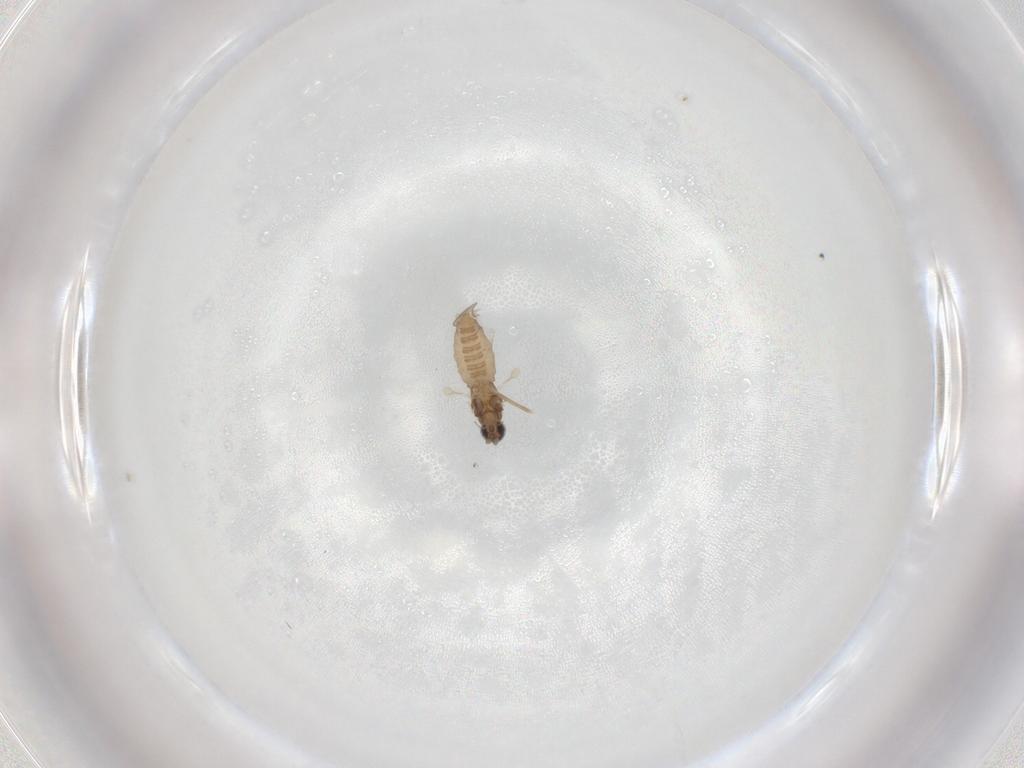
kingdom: Animalia
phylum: Arthropoda
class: Insecta
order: Diptera
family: Cecidomyiidae
